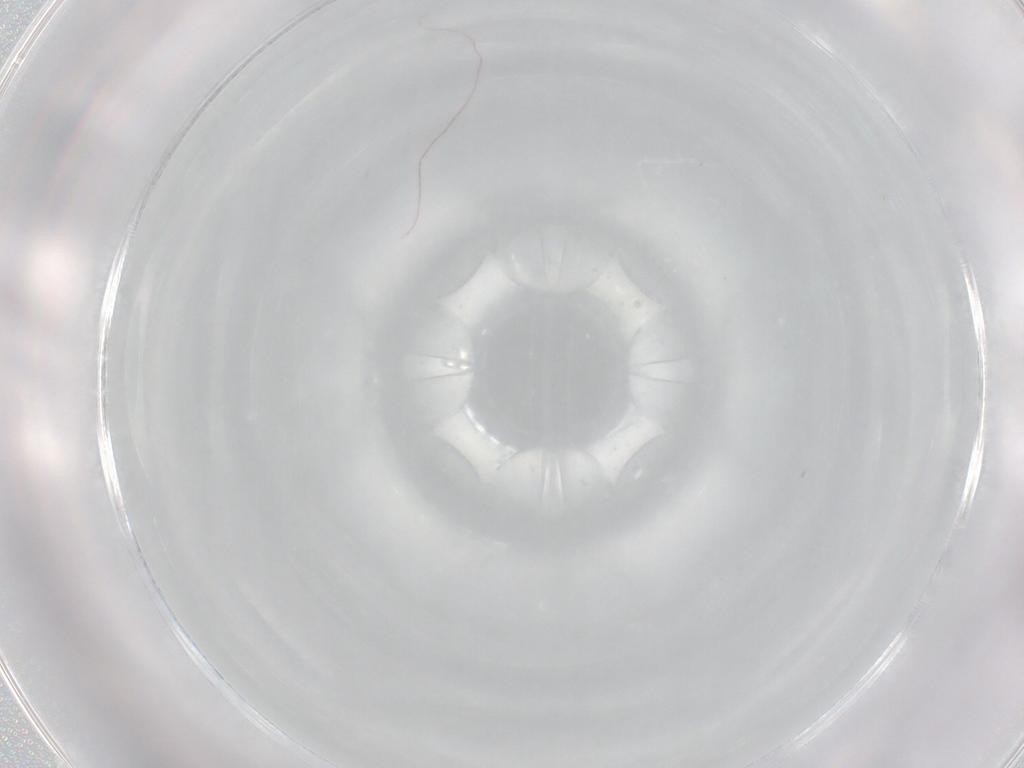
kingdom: Animalia
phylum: Arthropoda
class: Insecta
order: Hemiptera
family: Aleyrodidae
